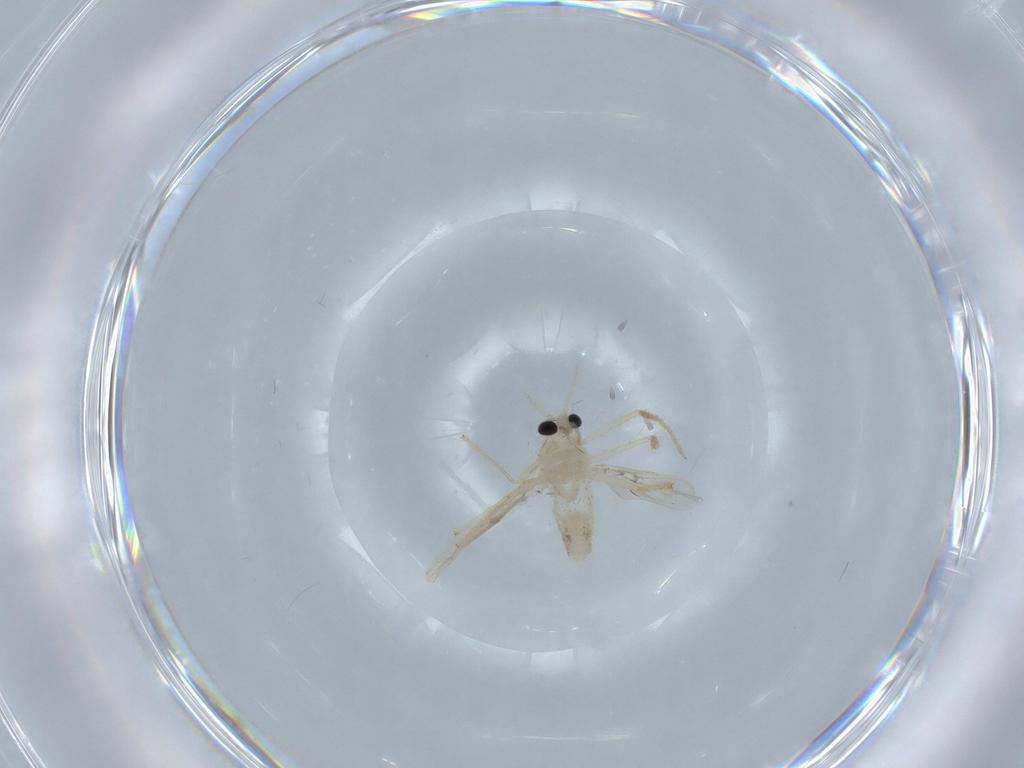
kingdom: Animalia
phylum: Arthropoda
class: Insecta
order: Diptera
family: Chironomidae
